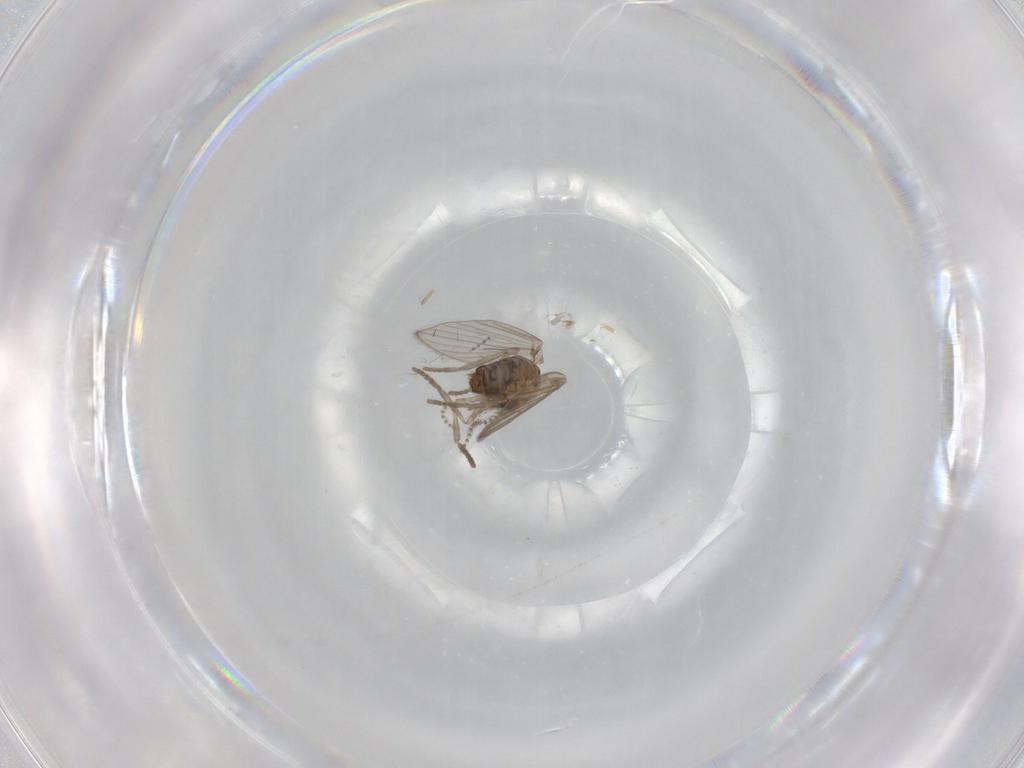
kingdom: Animalia
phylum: Arthropoda
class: Insecta
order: Diptera
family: Psychodidae
